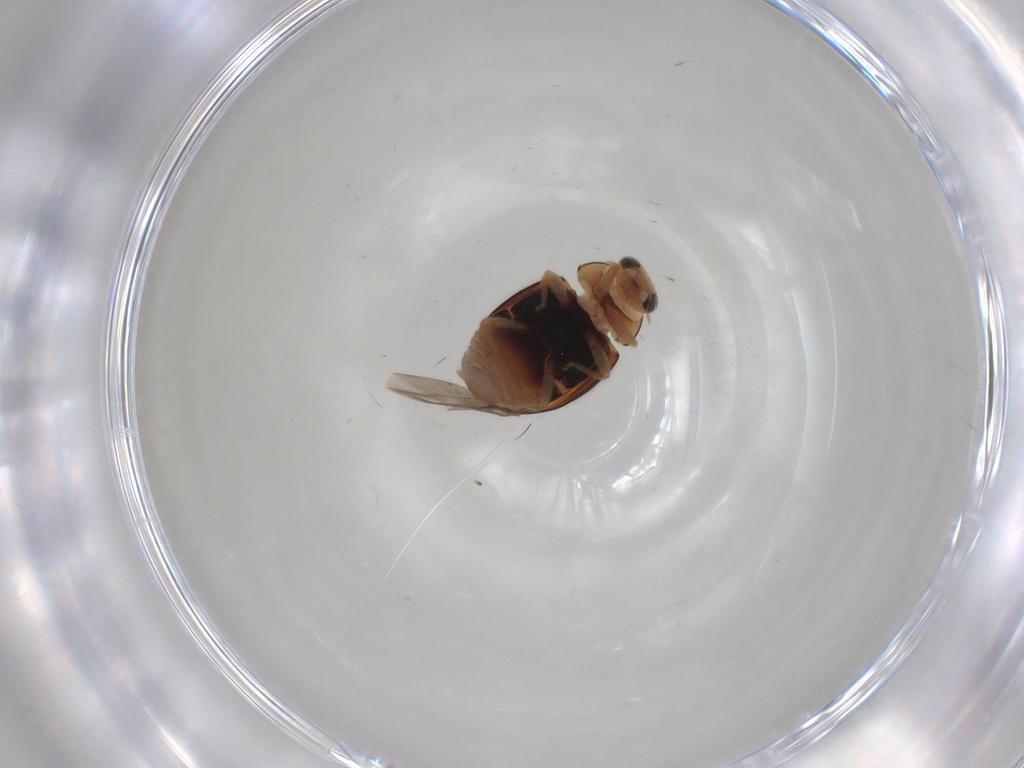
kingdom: Animalia
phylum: Arthropoda
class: Insecta
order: Coleoptera
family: Coccinellidae
